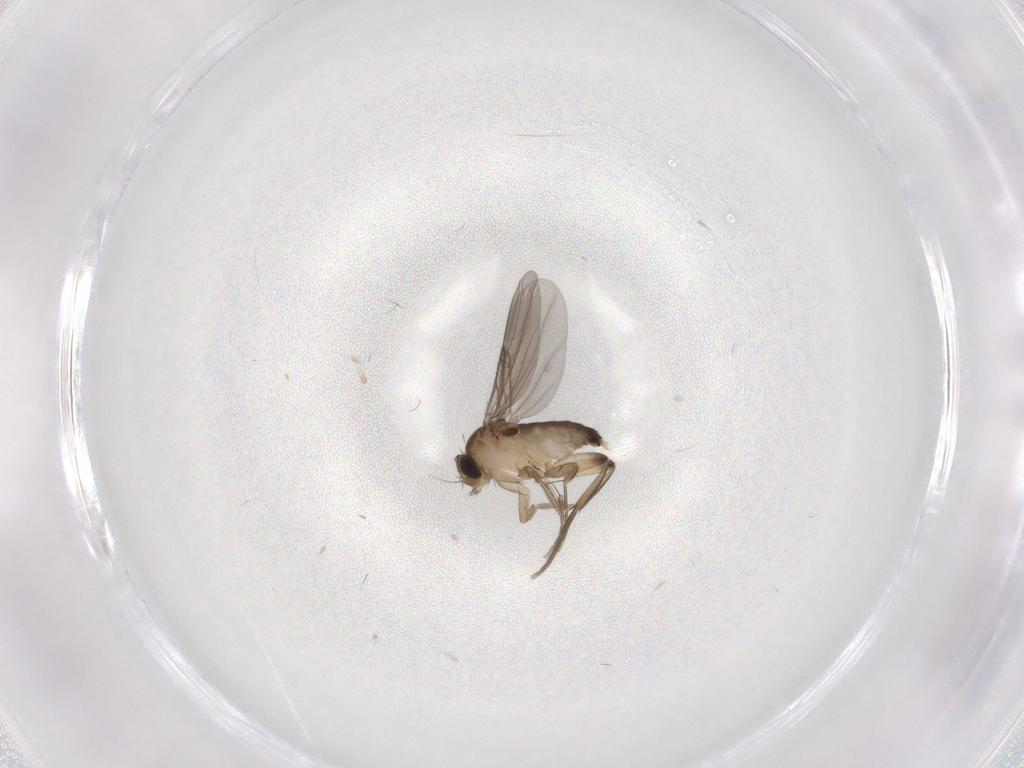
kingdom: Animalia
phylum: Arthropoda
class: Insecta
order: Diptera
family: Phoridae
